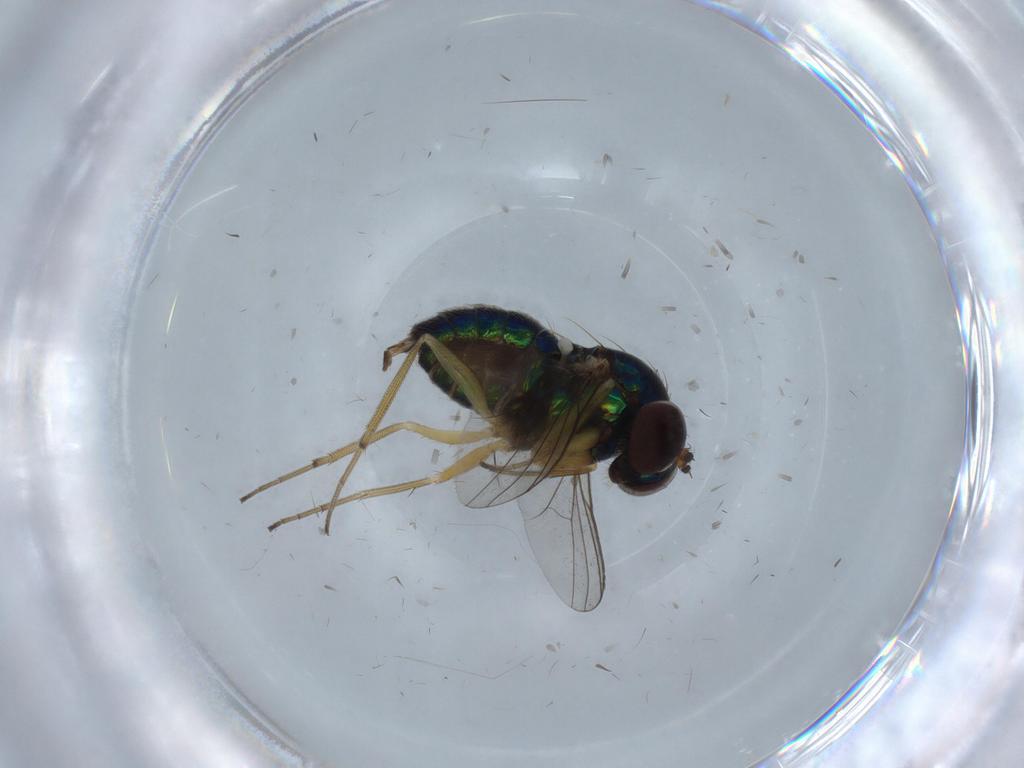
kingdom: Animalia
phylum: Arthropoda
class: Insecta
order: Diptera
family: Dolichopodidae
